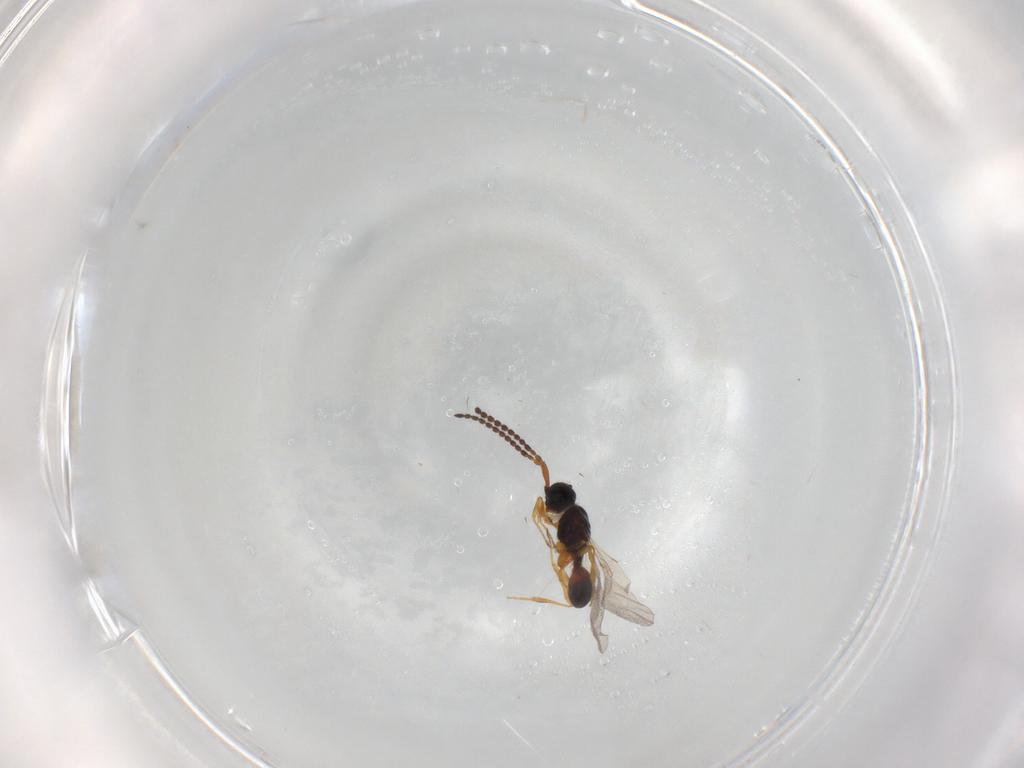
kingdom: Animalia
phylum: Arthropoda
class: Insecta
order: Hymenoptera
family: Diapriidae
